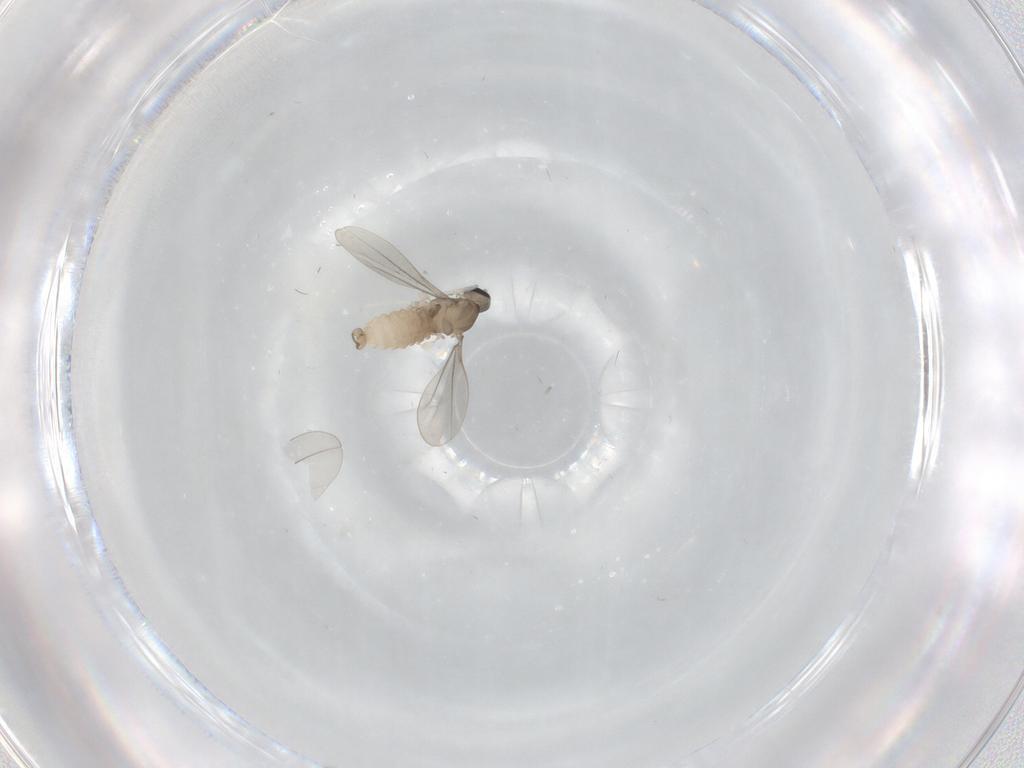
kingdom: Animalia
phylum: Arthropoda
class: Insecta
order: Diptera
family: Cecidomyiidae
